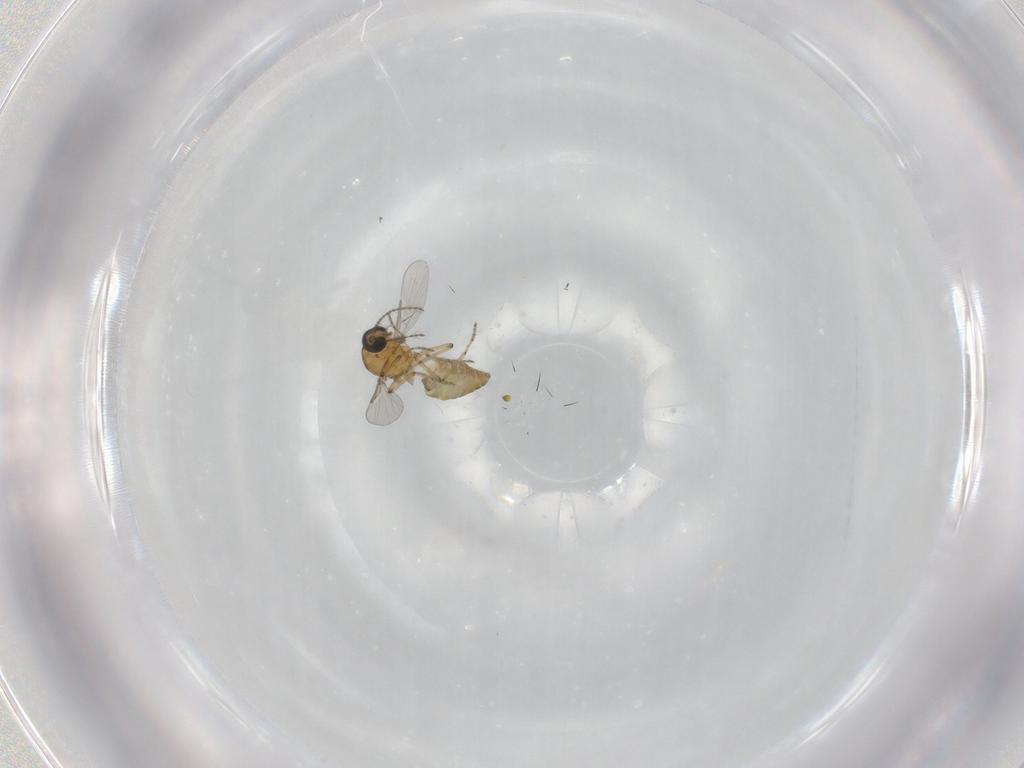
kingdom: Animalia
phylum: Arthropoda
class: Insecta
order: Diptera
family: Ceratopogonidae
